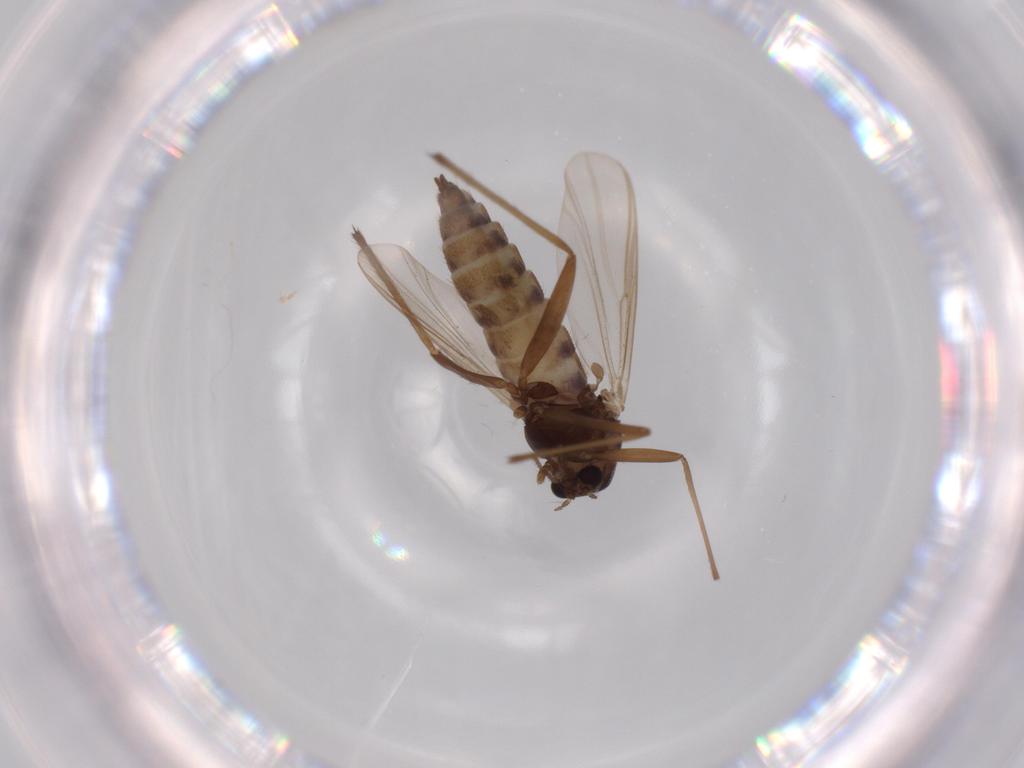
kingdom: Animalia
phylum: Arthropoda
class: Insecta
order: Diptera
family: Chironomidae
